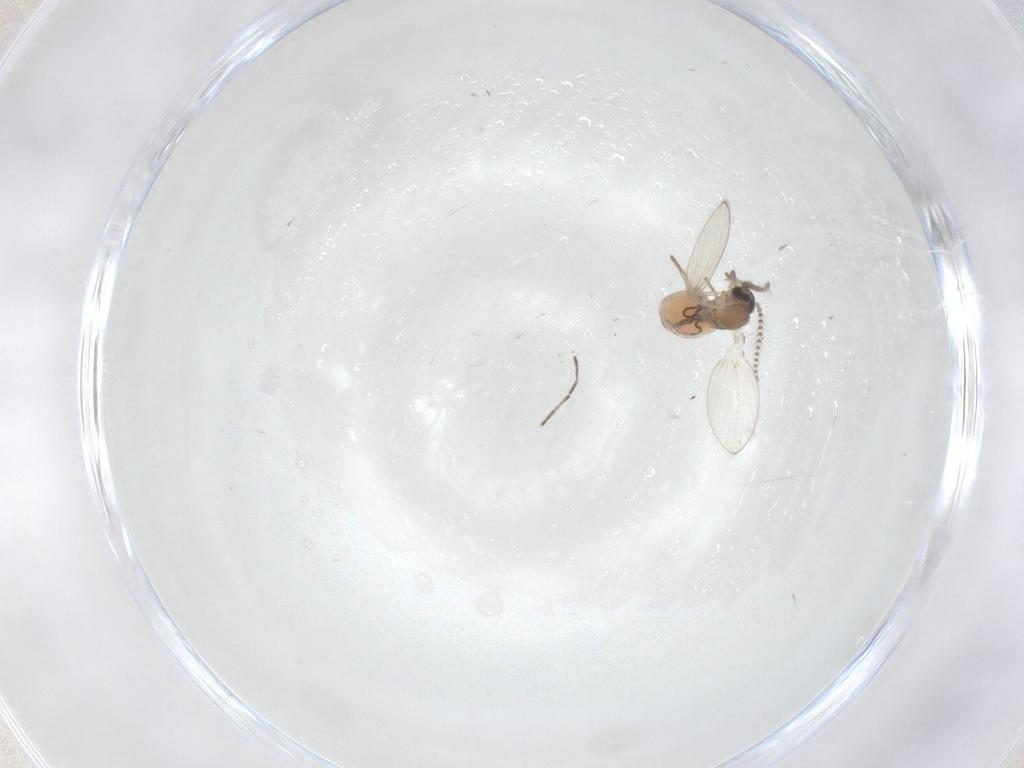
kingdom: Animalia
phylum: Arthropoda
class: Insecta
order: Diptera
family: Psychodidae
